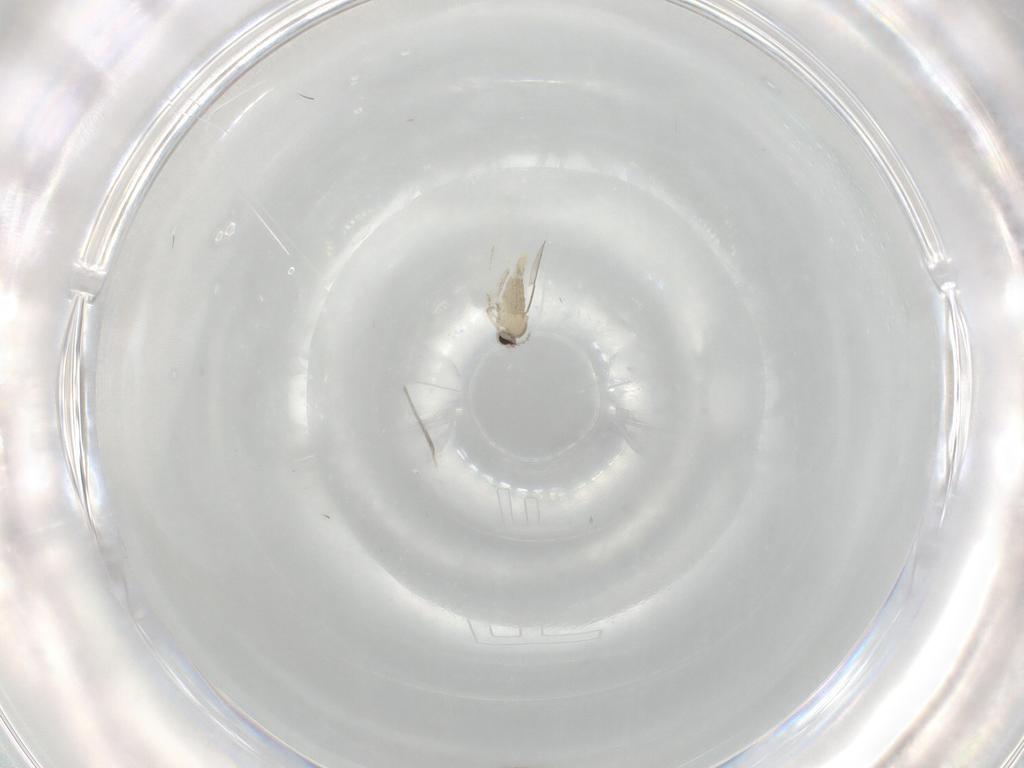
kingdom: Animalia
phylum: Arthropoda
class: Insecta
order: Diptera
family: Cecidomyiidae
